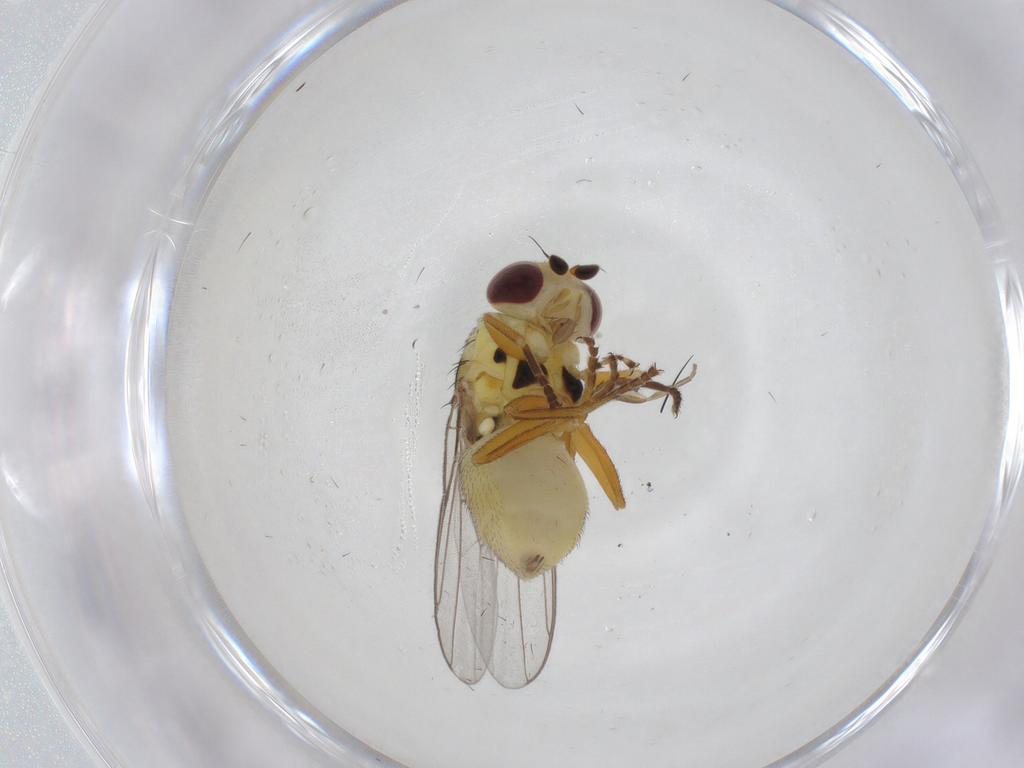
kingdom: Animalia
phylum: Arthropoda
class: Insecta
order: Diptera
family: Chloropidae
